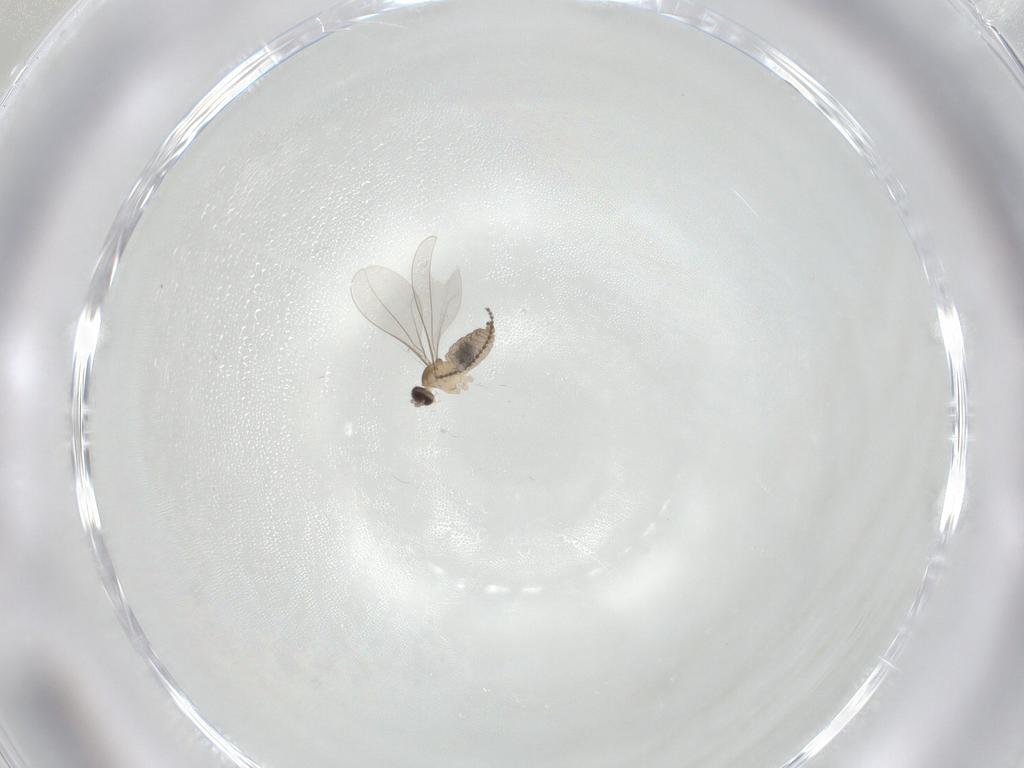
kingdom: Animalia
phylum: Arthropoda
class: Insecta
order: Diptera
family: Cecidomyiidae
